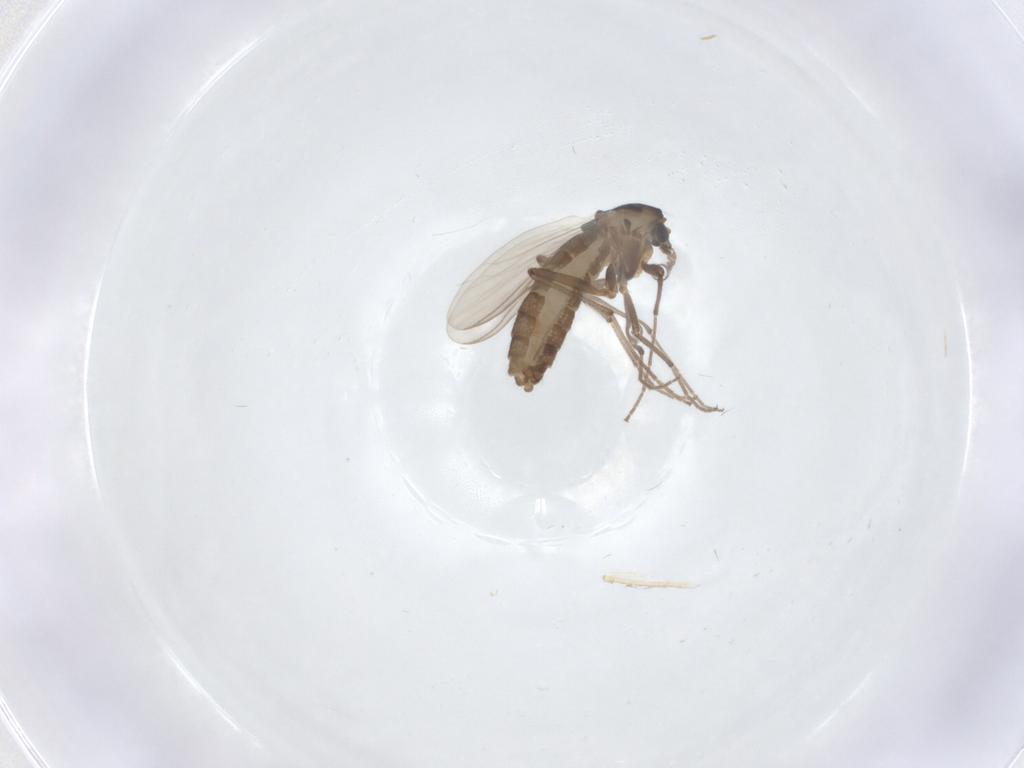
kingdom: Animalia
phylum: Arthropoda
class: Insecta
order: Diptera
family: Chironomidae
